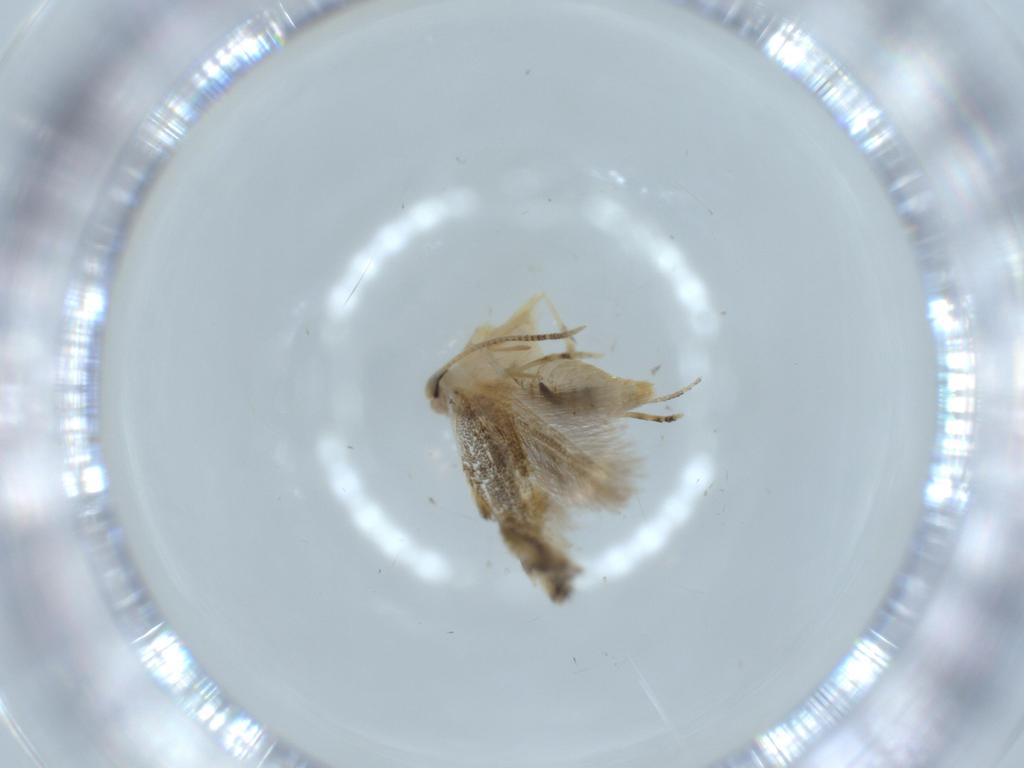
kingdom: Animalia
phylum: Arthropoda
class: Insecta
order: Lepidoptera
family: Bucculatricidae
